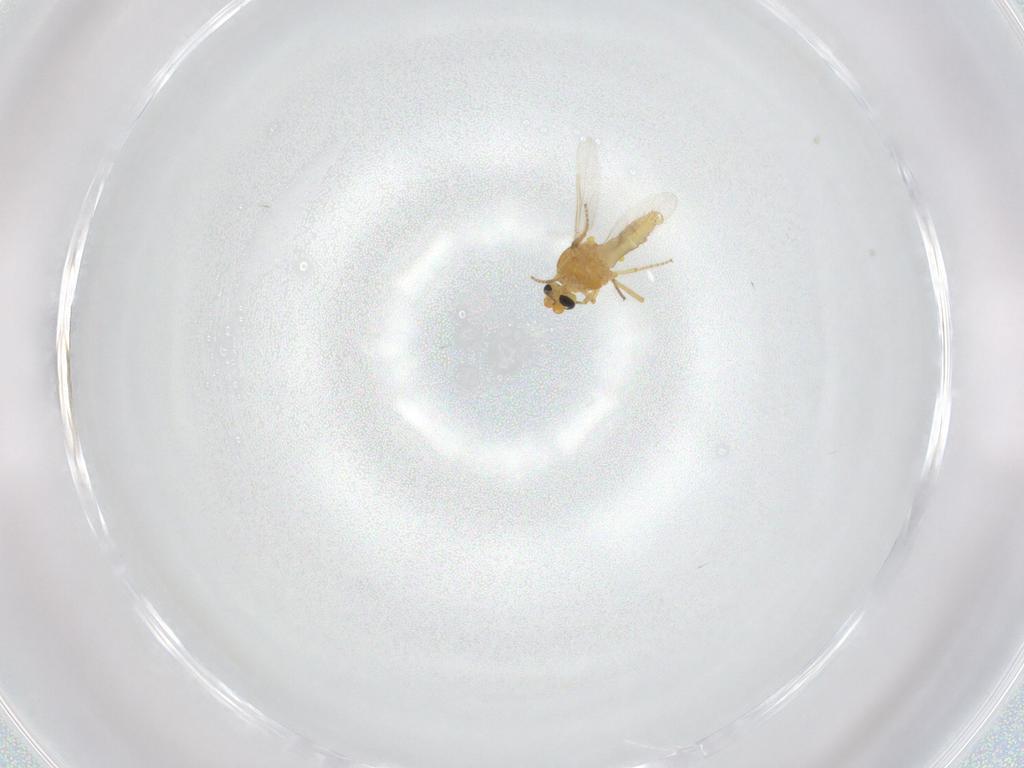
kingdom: Animalia
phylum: Arthropoda
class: Insecta
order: Diptera
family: Ceratopogonidae
